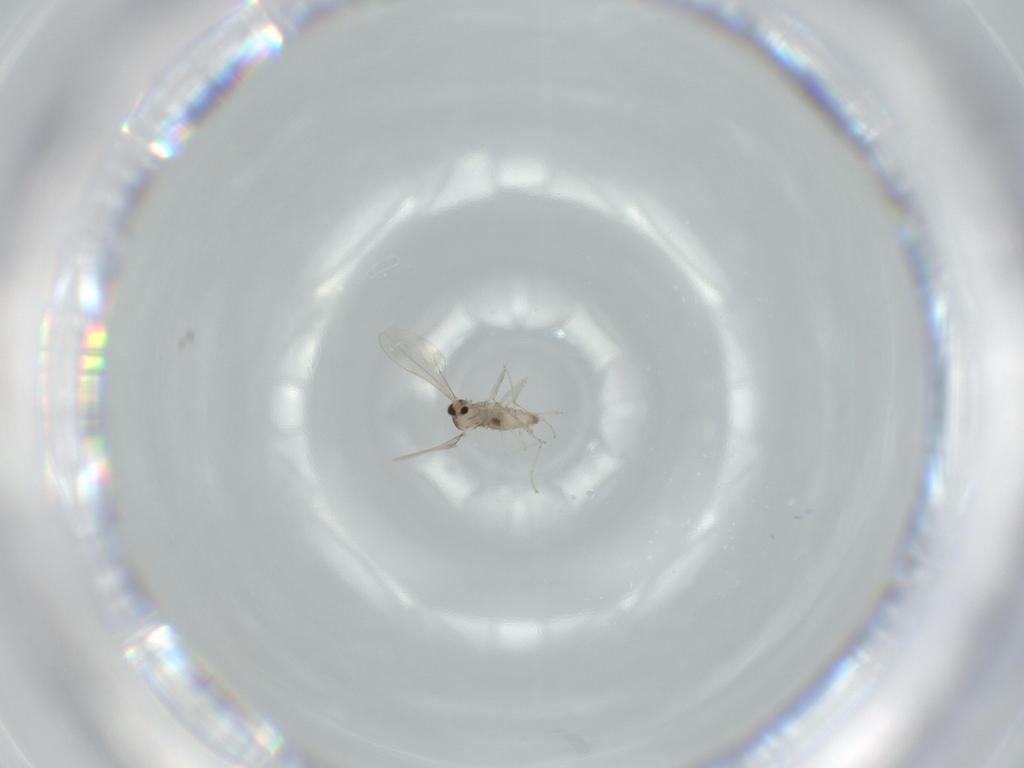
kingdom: Animalia
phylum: Arthropoda
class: Insecta
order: Diptera
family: Cecidomyiidae
